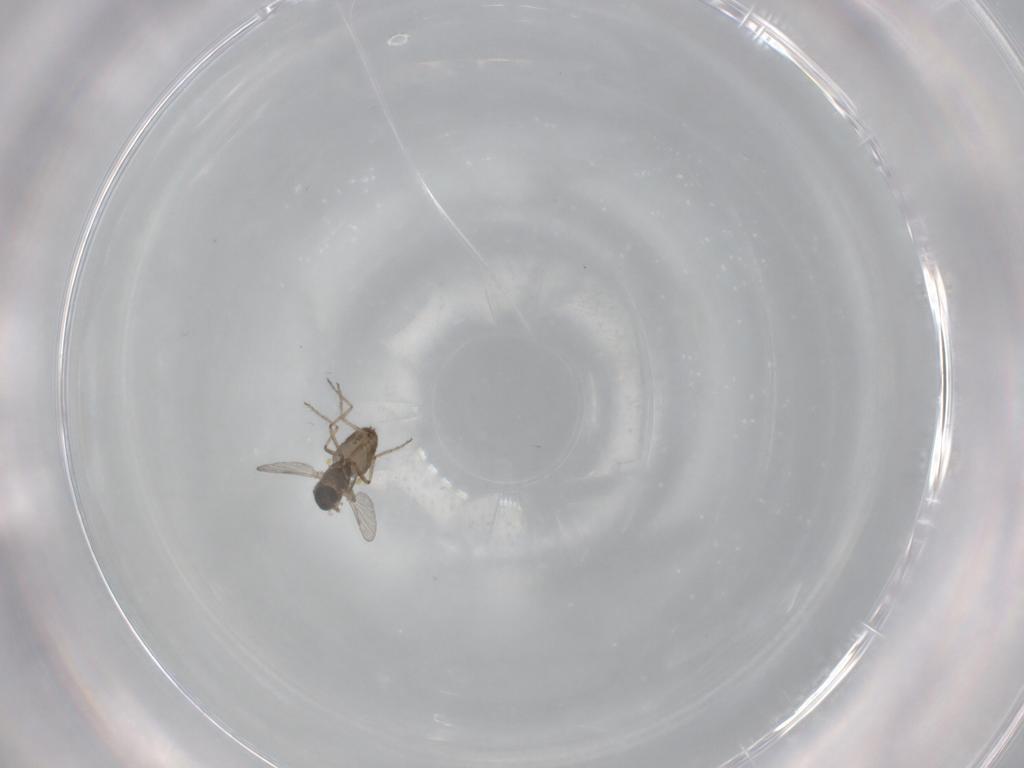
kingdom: Animalia
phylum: Arthropoda
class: Insecta
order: Diptera
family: Ceratopogonidae
